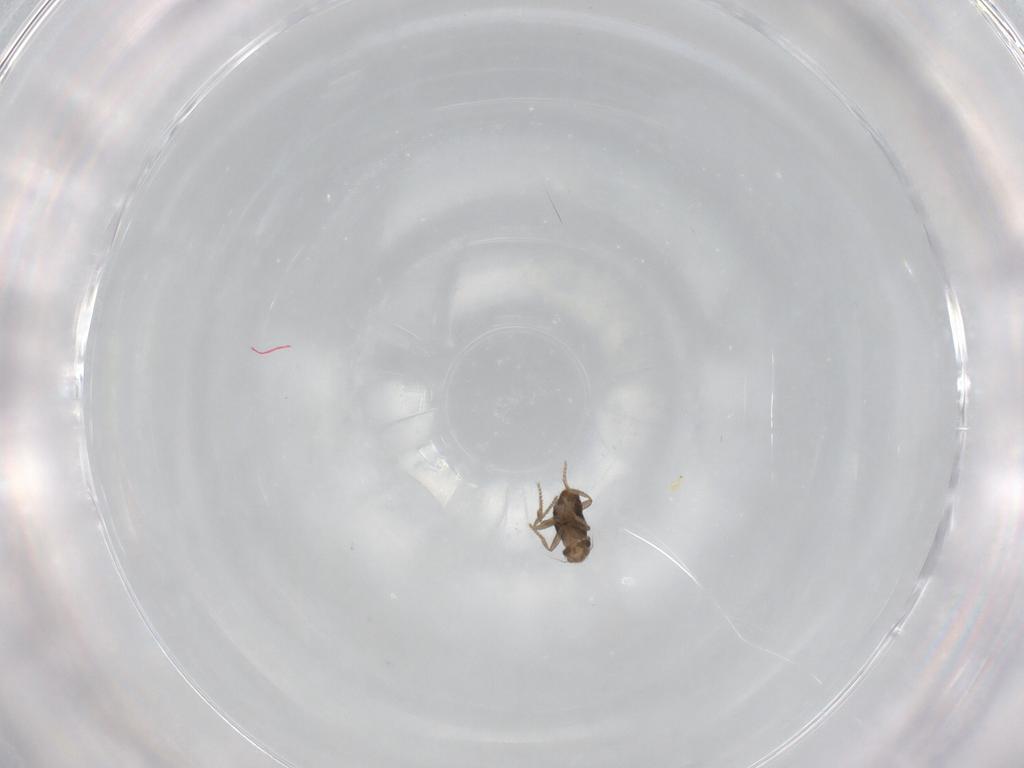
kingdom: Animalia
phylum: Arthropoda
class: Insecta
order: Diptera
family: Phoridae
